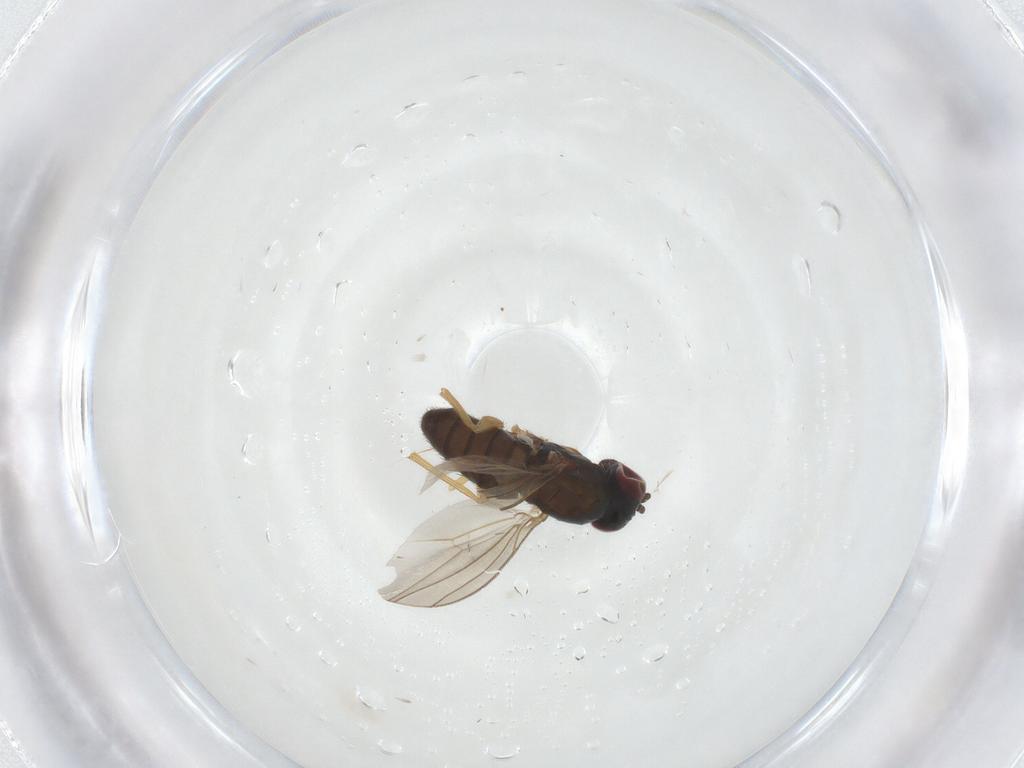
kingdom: Animalia
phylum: Arthropoda
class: Insecta
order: Diptera
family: Dolichopodidae
